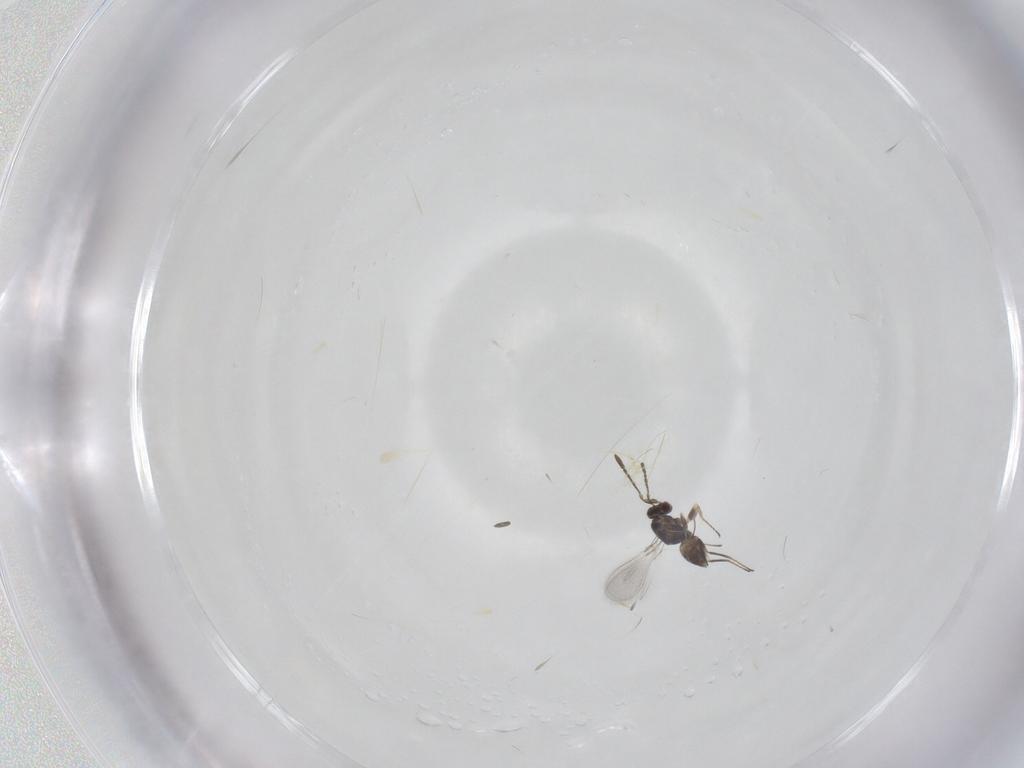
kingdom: Animalia
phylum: Arthropoda
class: Insecta
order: Hymenoptera
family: Mymaridae
